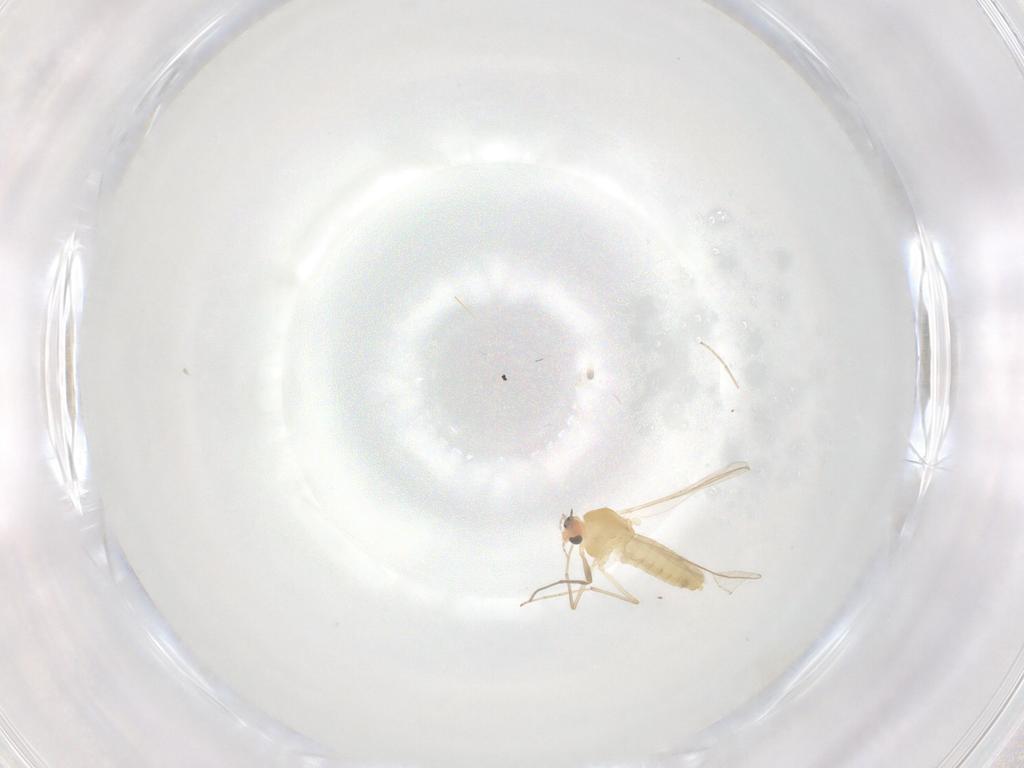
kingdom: Animalia
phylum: Arthropoda
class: Insecta
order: Diptera
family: Chironomidae
